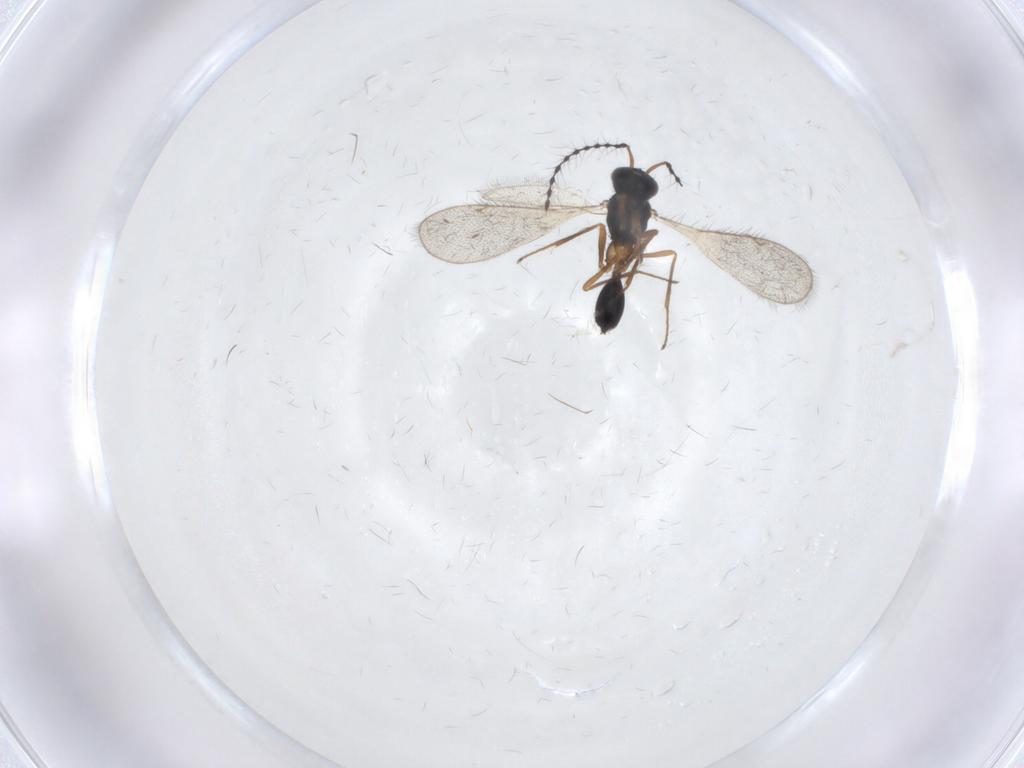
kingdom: Animalia
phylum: Arthropoda
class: Insecta
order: Hymenoptera
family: Diparidae
